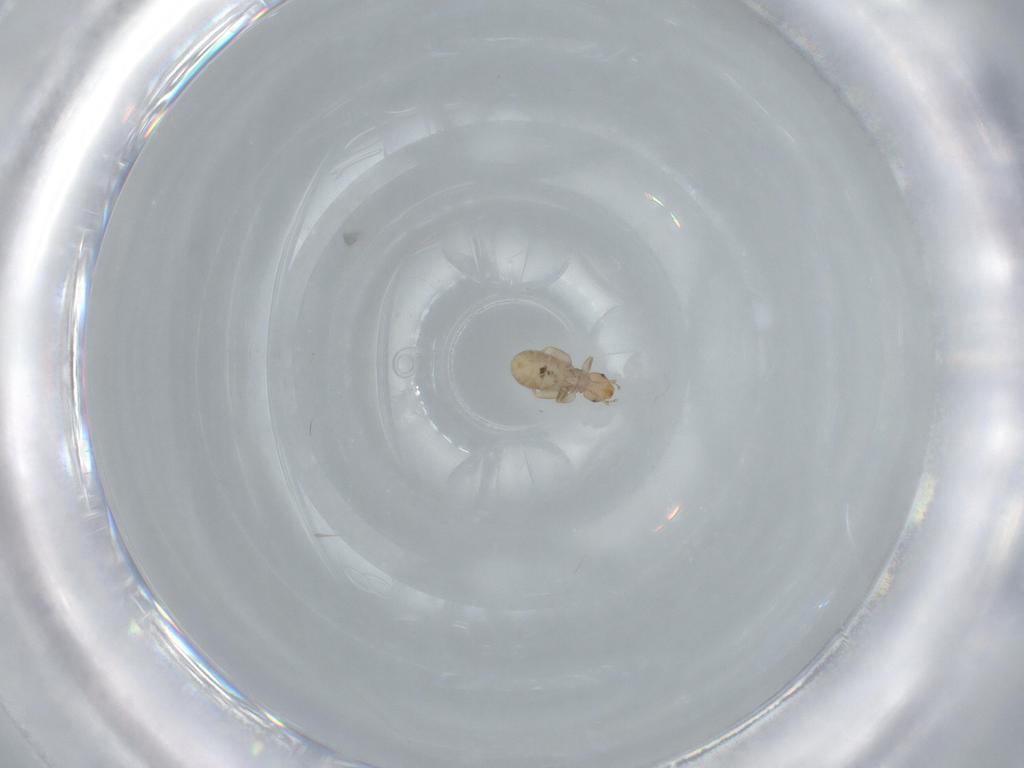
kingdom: Animalia
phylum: Arthropoda
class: Insecta
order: Psocodea
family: Liposcelididae
